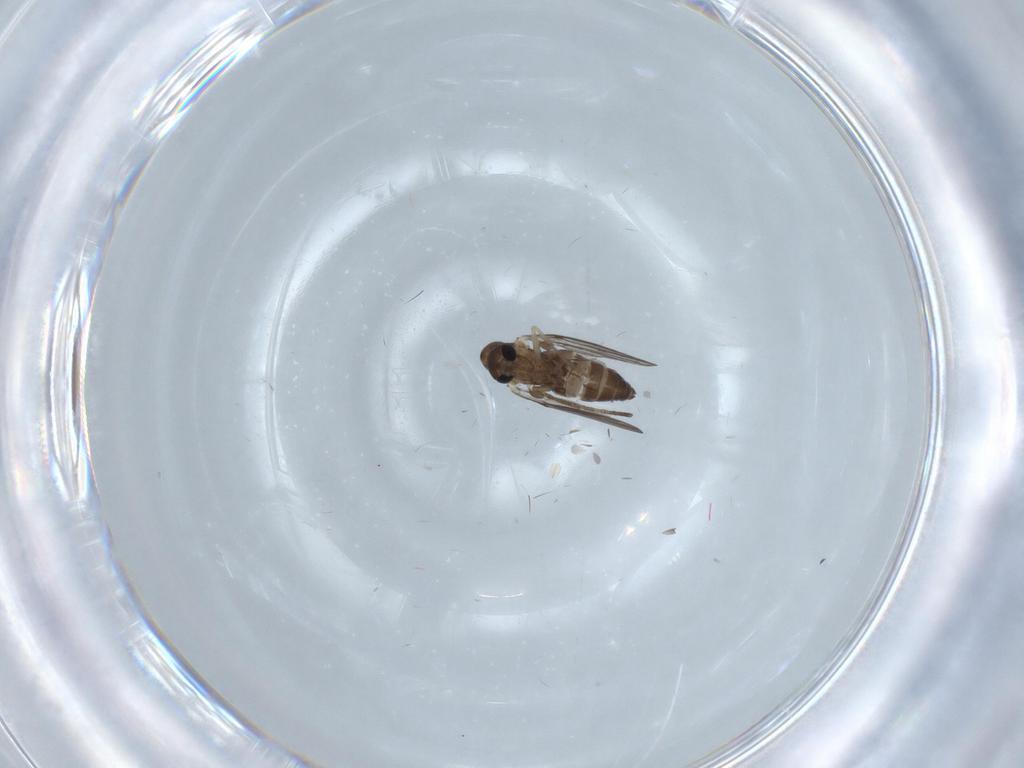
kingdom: Animalia
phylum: Arthropoda
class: Insecta
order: Diptera
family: Dolichopodidae
